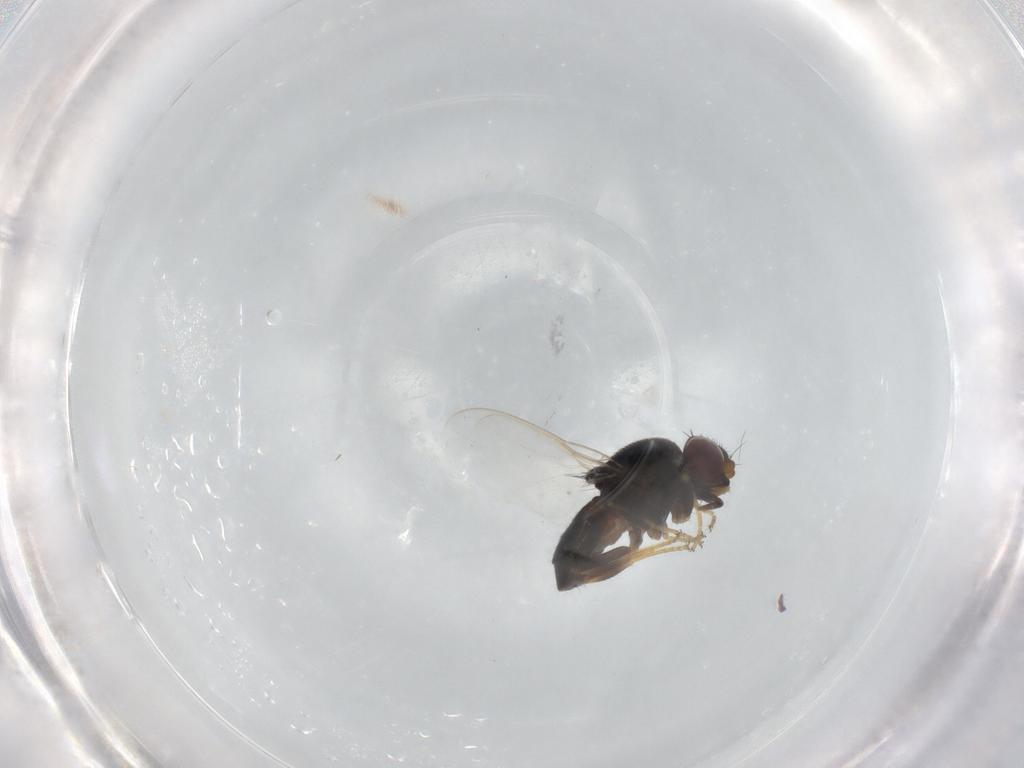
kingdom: Animalia
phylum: Arthropoda
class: Insecta
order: Diptera
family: Chloropidae
